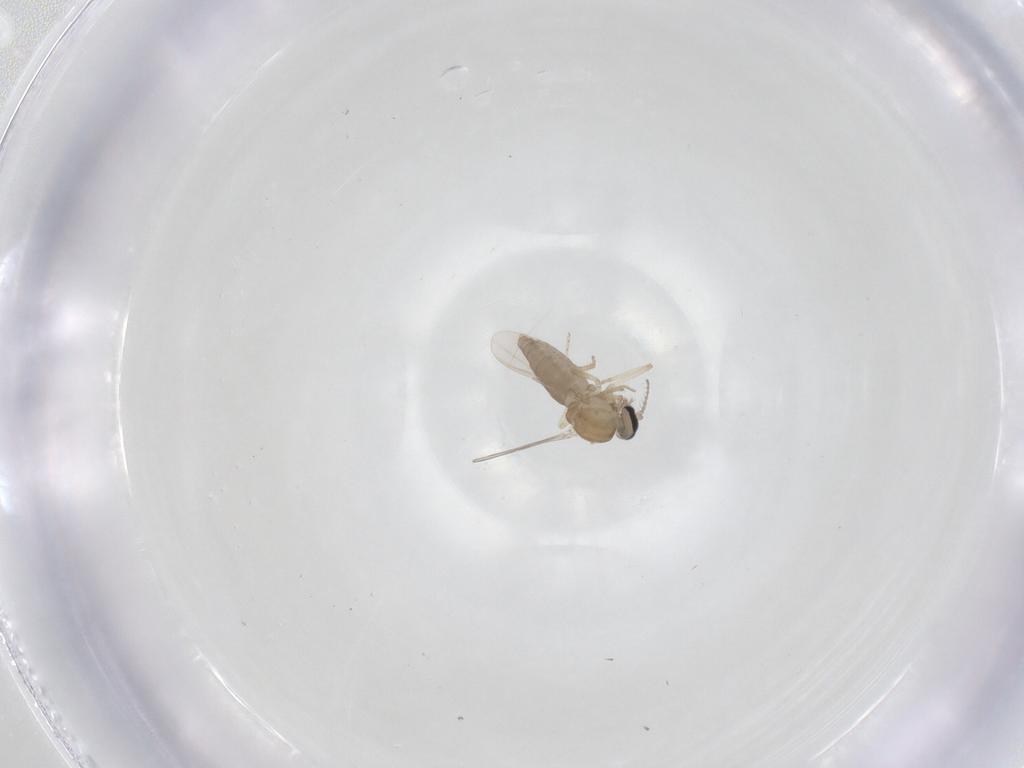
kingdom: Animalia
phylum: Arthropoda
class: Insecta
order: Diptera
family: Ceratopogonidae
